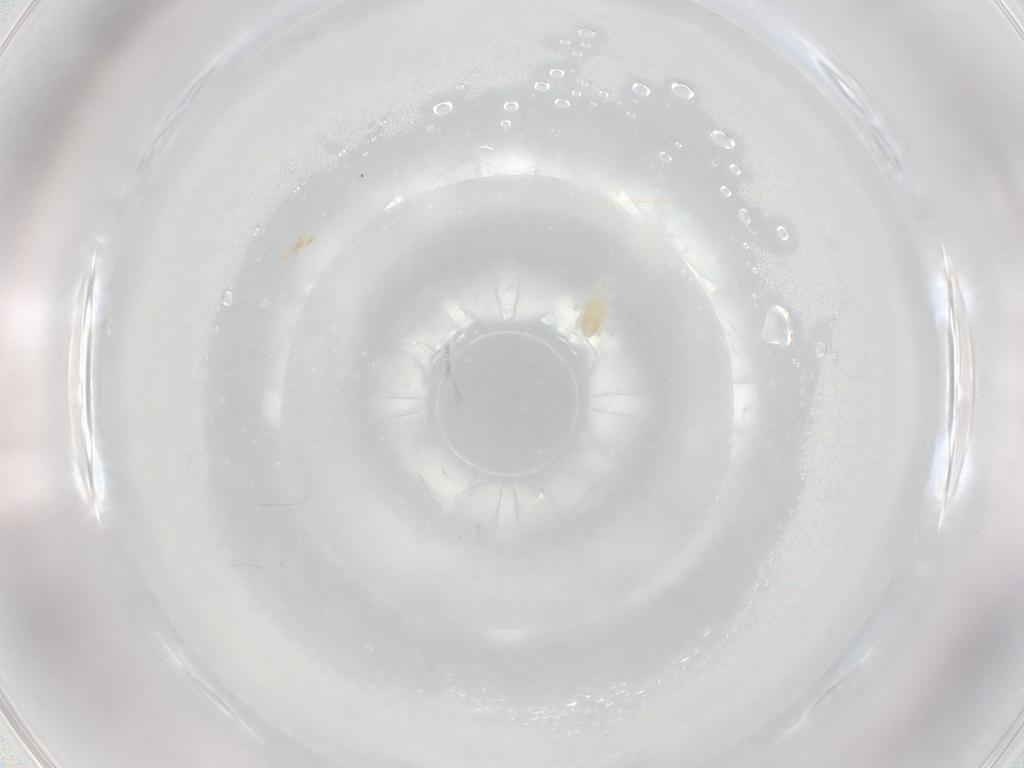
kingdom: Animalia
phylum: Arthropoda
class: Arachnida
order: Trombidiformes
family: Eupodidae
